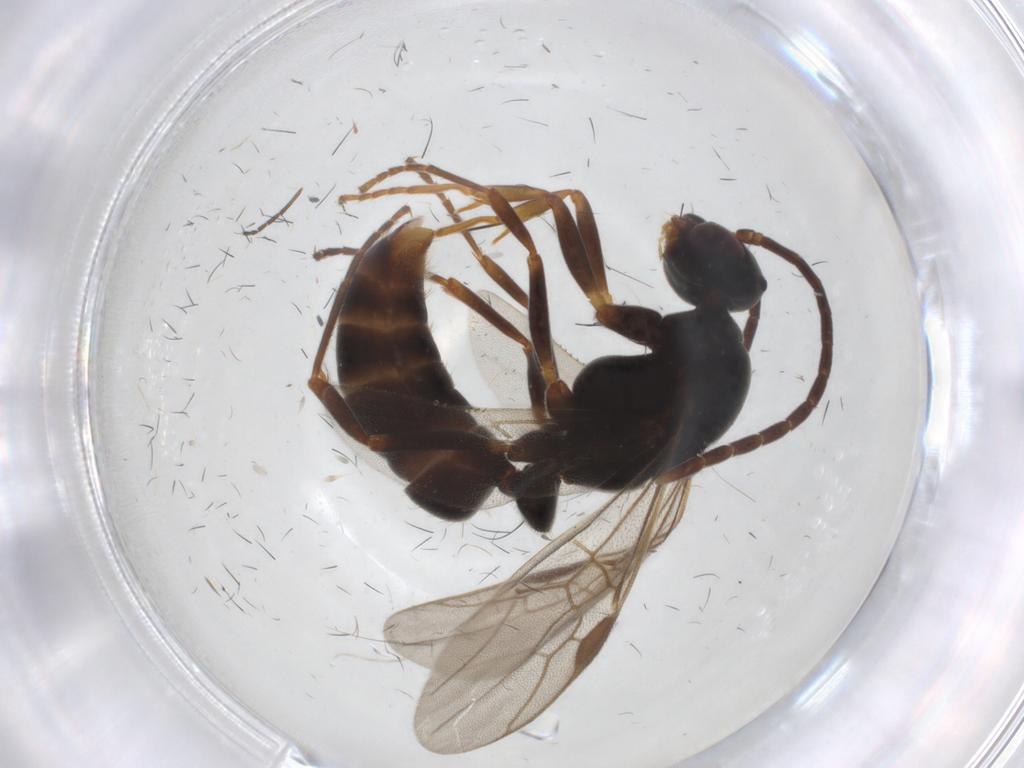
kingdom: Animalia
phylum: Arthropoda
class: Insecta
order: Hymenoptera
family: Formicidae
